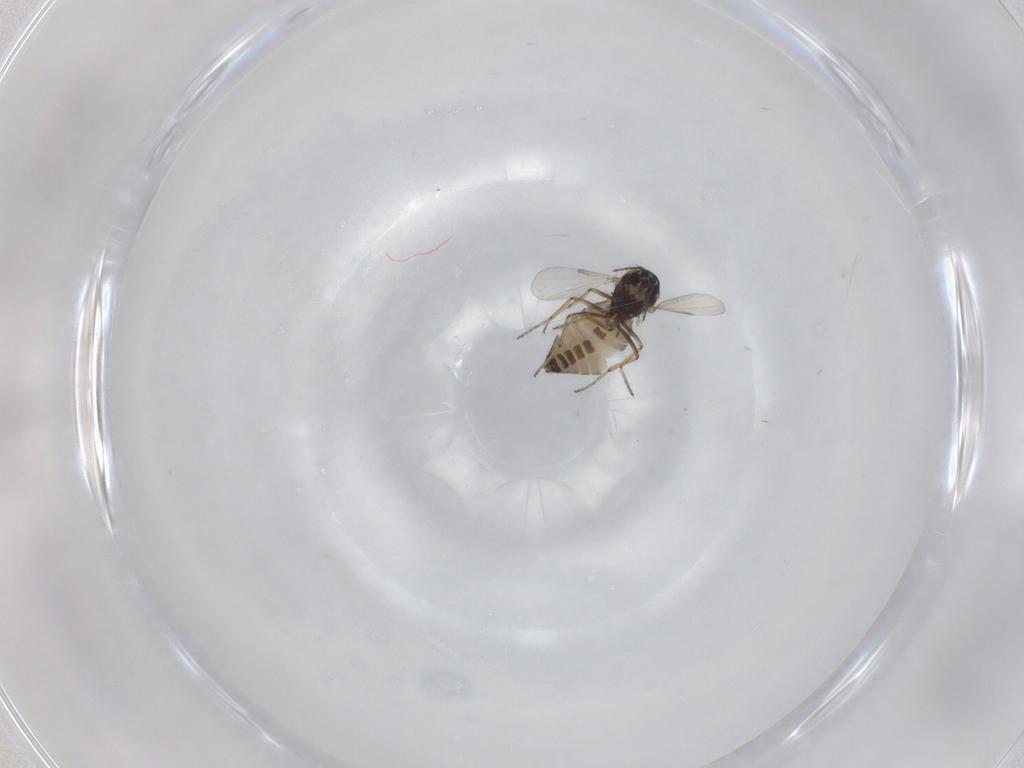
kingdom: Animalia
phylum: Arthropoda
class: Insecta
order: Diptera
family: Ceratopogonidae
